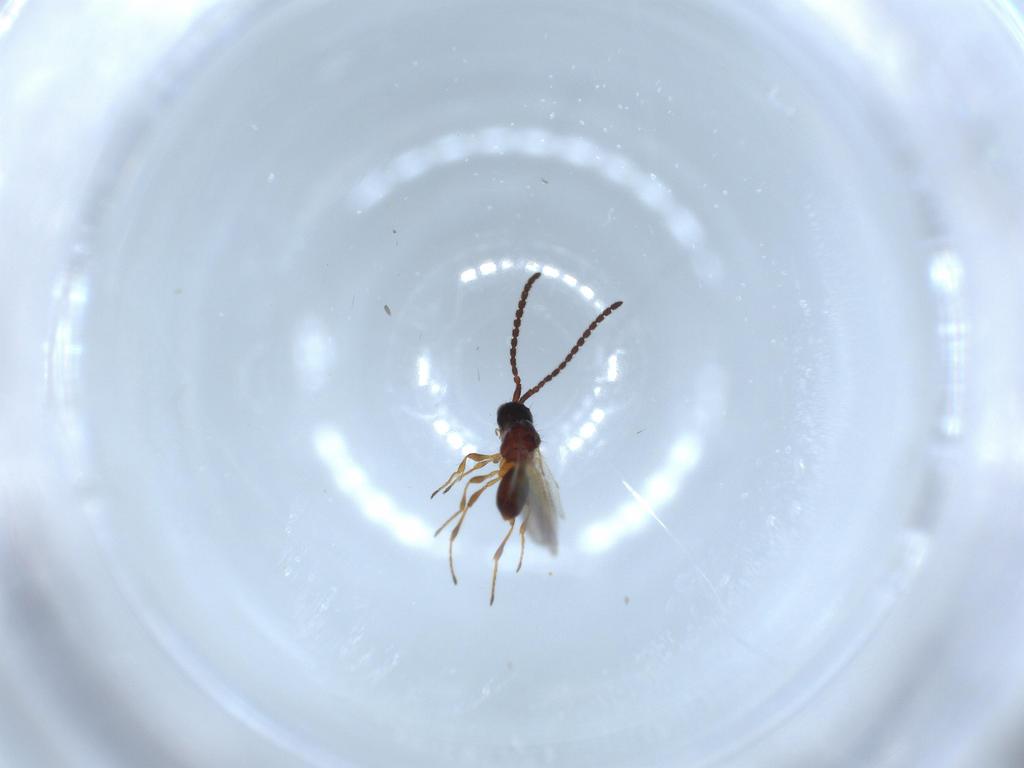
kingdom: Animalia
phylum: Arthropoda
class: Insecta
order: Hymenoptera
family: Diapriidae
